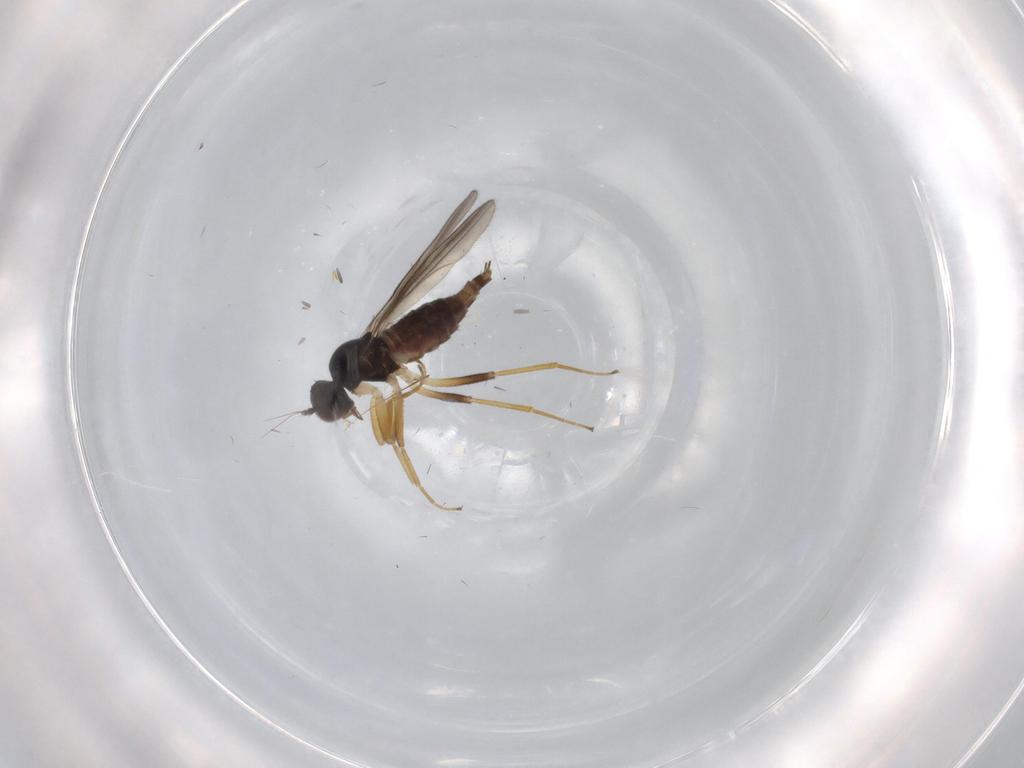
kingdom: Animalia
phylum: Arthropoda
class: Insecta
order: Diptera
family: Hybotidae
